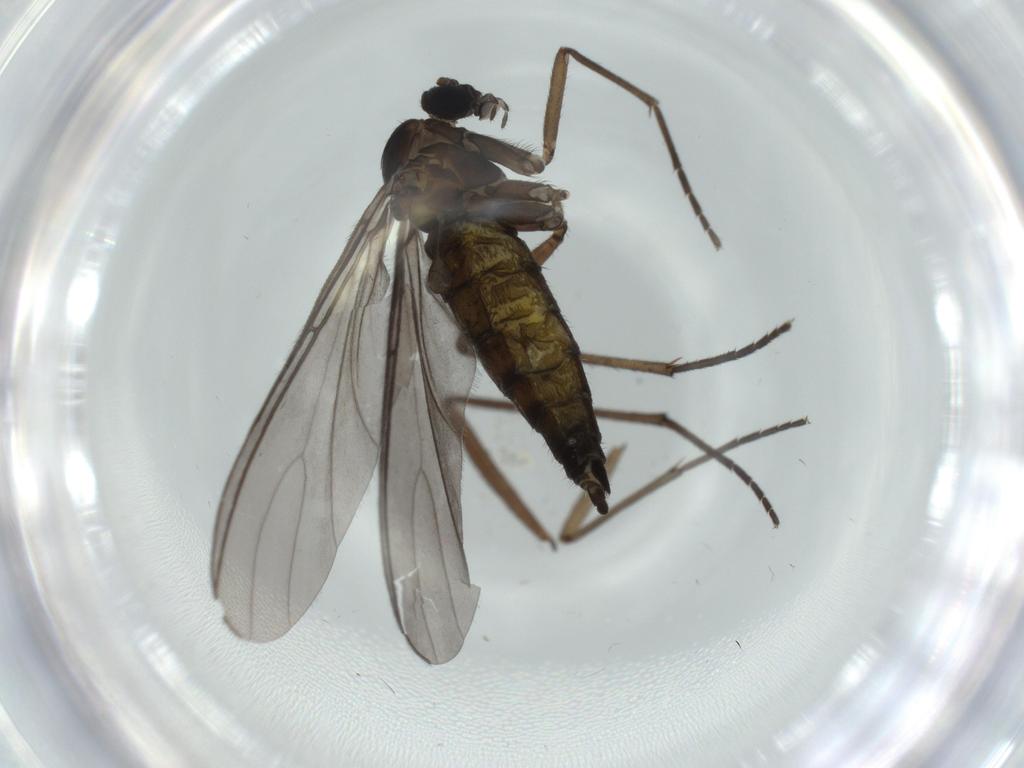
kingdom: Animalia
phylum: Arthropoda
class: Insecta
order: Diptera
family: Sciaridae
